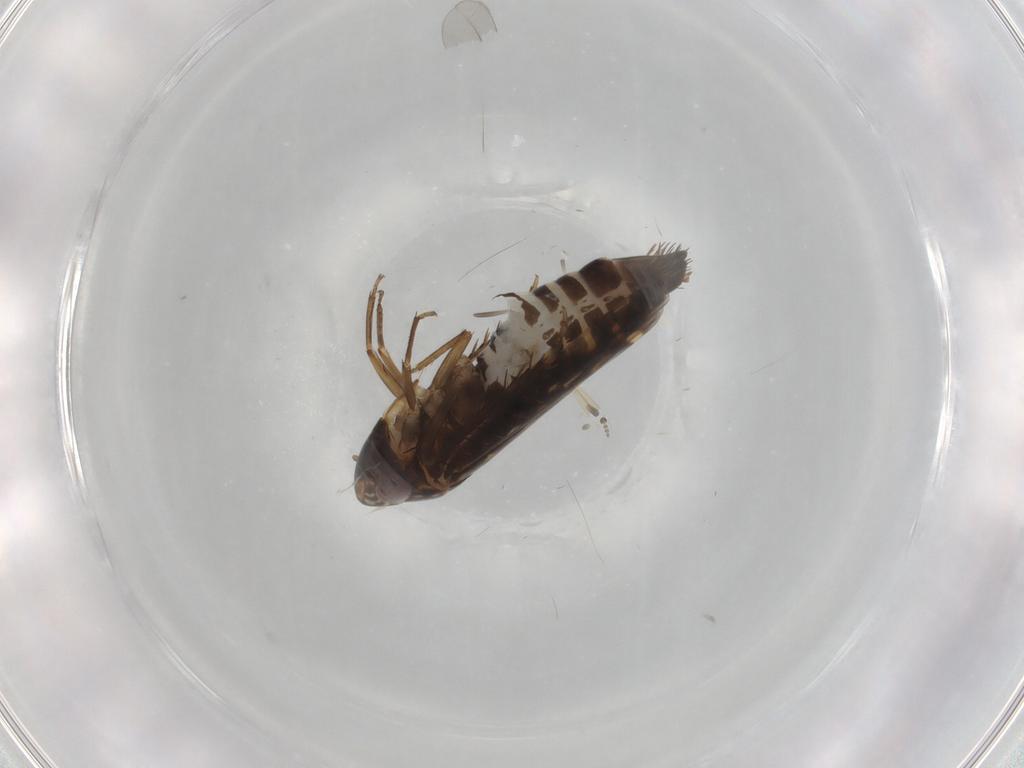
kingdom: Animalia
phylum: Arthropoda
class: Insecta
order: Hemiptera
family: Cicadellidae
